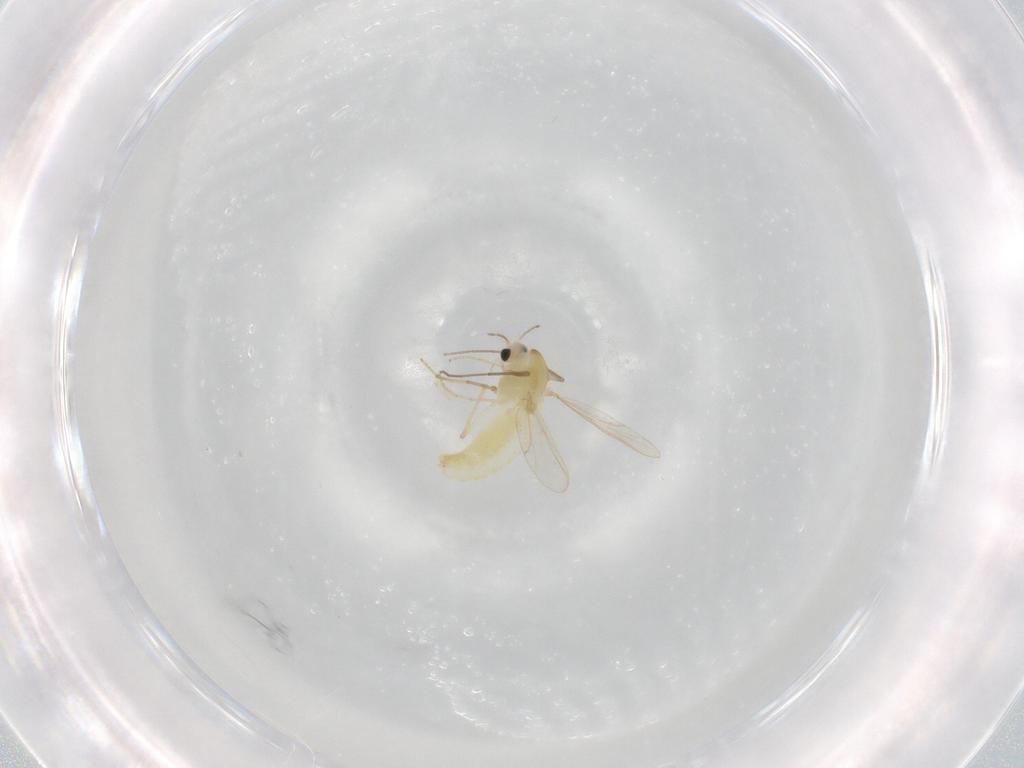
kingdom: Animalia
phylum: Arthropoda
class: Insecta
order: Diptera
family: Chironomidae
